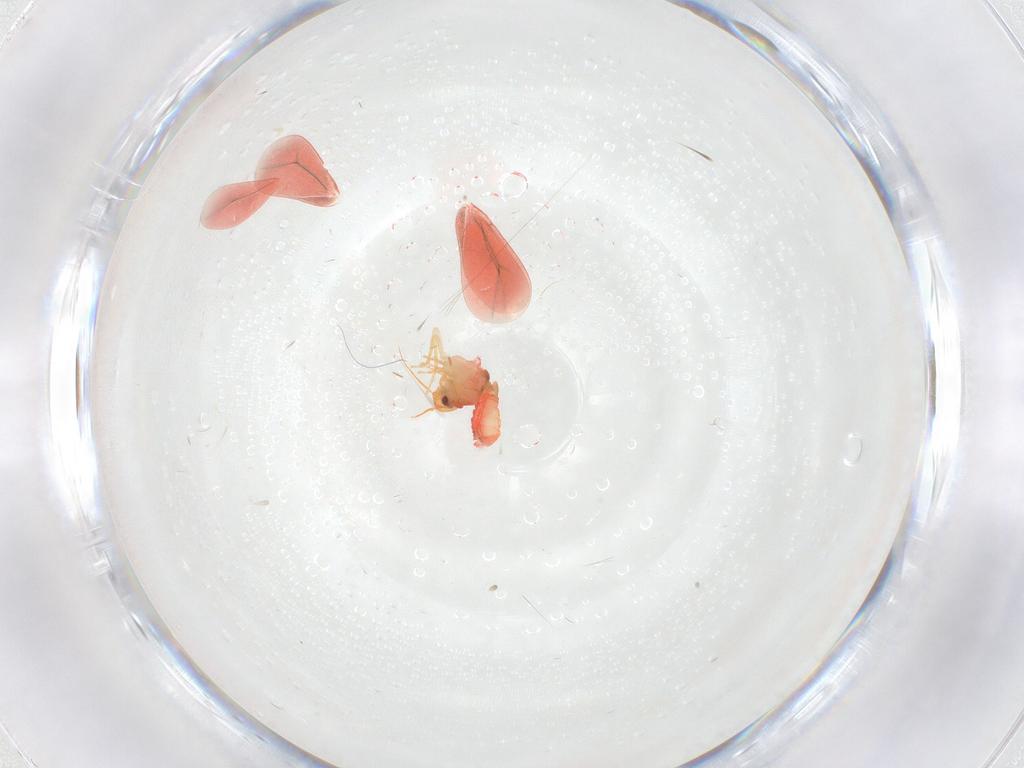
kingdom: Animalia
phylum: Arthropoda
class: Insecta
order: Hemiptera
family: Aleyrodidae
